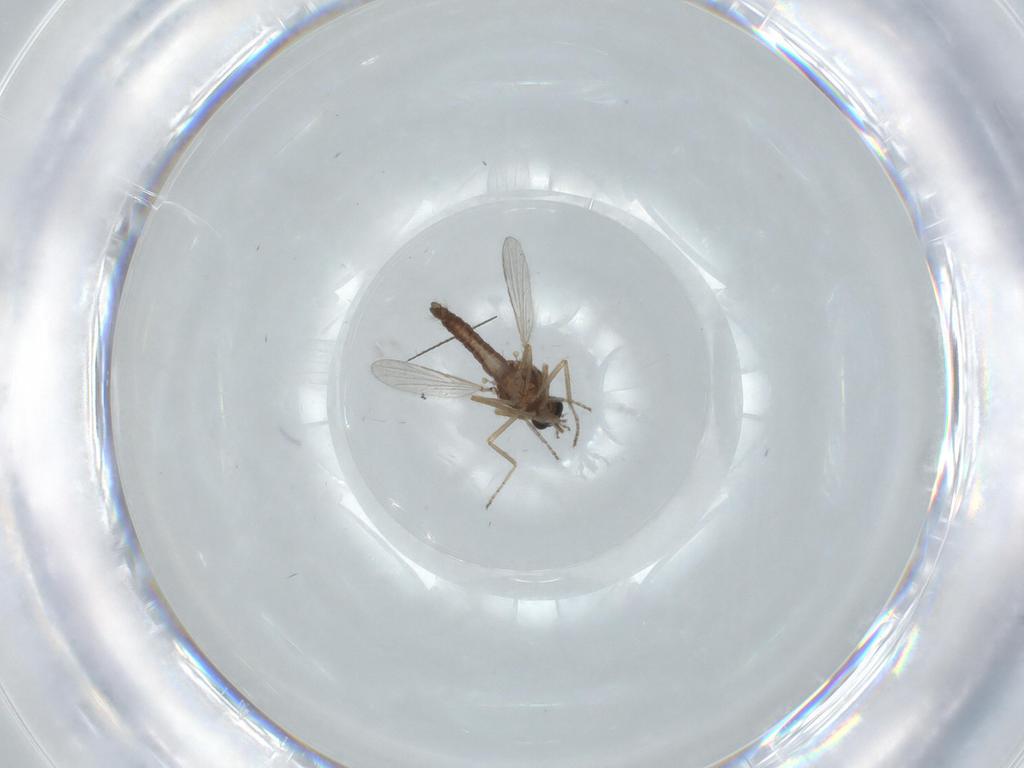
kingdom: Animalia
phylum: Arthropoda
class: Insecta
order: Diptera
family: Ceratopogonidae
